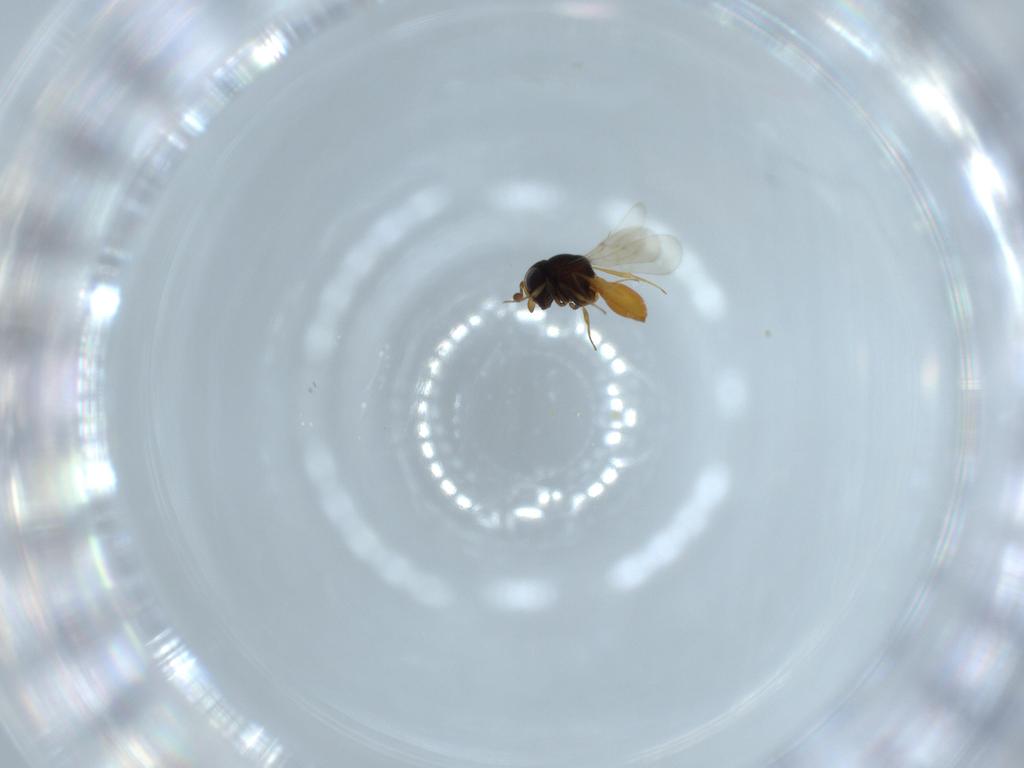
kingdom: Animalia
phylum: Arthropoda
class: Insecta
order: Hymenoptera
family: Scelionidae
